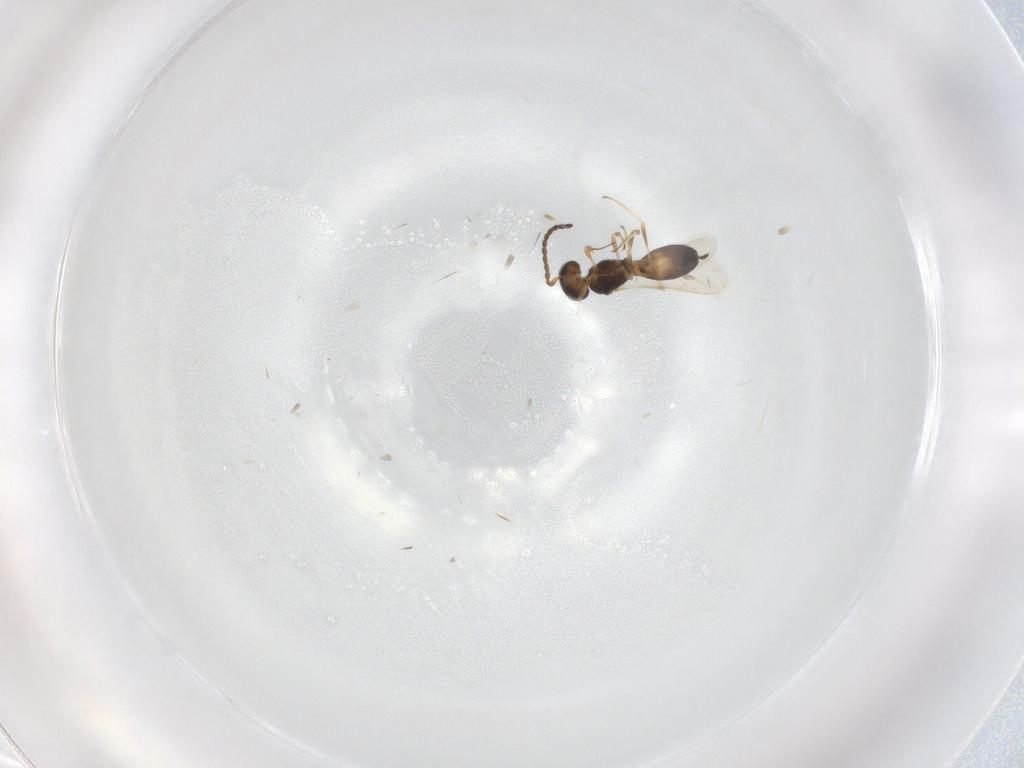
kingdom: Animalia
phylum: Arthropoda
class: Insecta
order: Hymenoptera
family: Scelionidae
